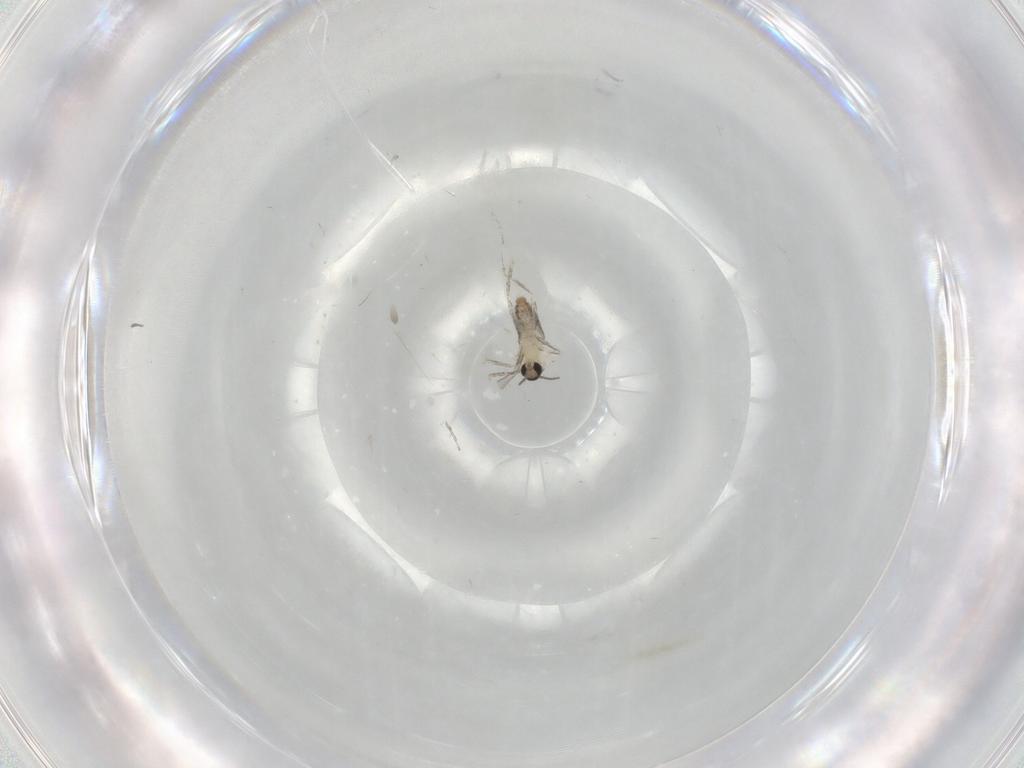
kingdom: Animalia
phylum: Arthropoda
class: Insecta
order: Diptera
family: Cecidomyiidae
